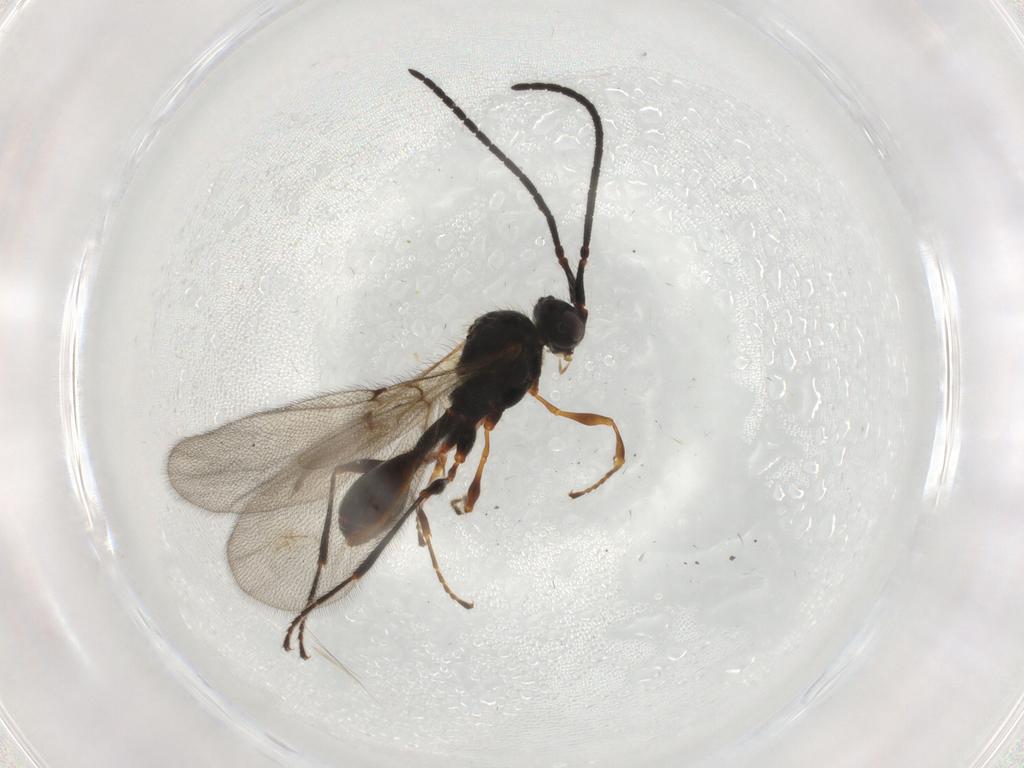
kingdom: Animalia
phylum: Arthropoda
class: Insecta
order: Hymenoptera
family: Diapriidae
